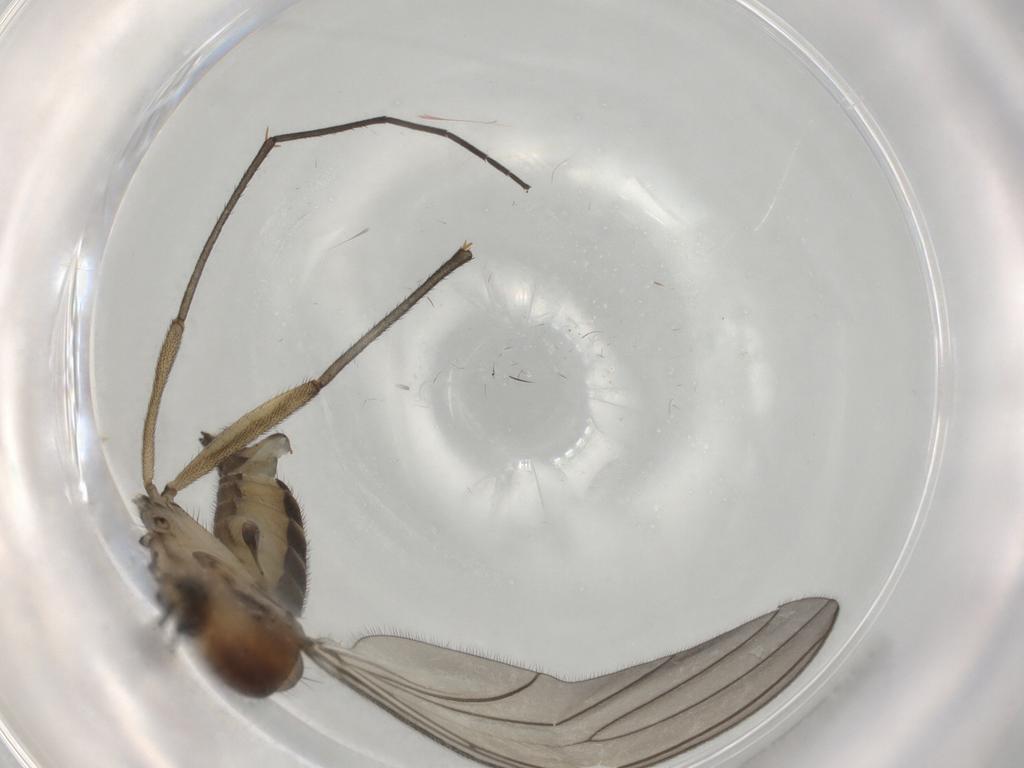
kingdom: Animalia
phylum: Arthropoda
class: Insecta
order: Diptera
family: Sciaridae
